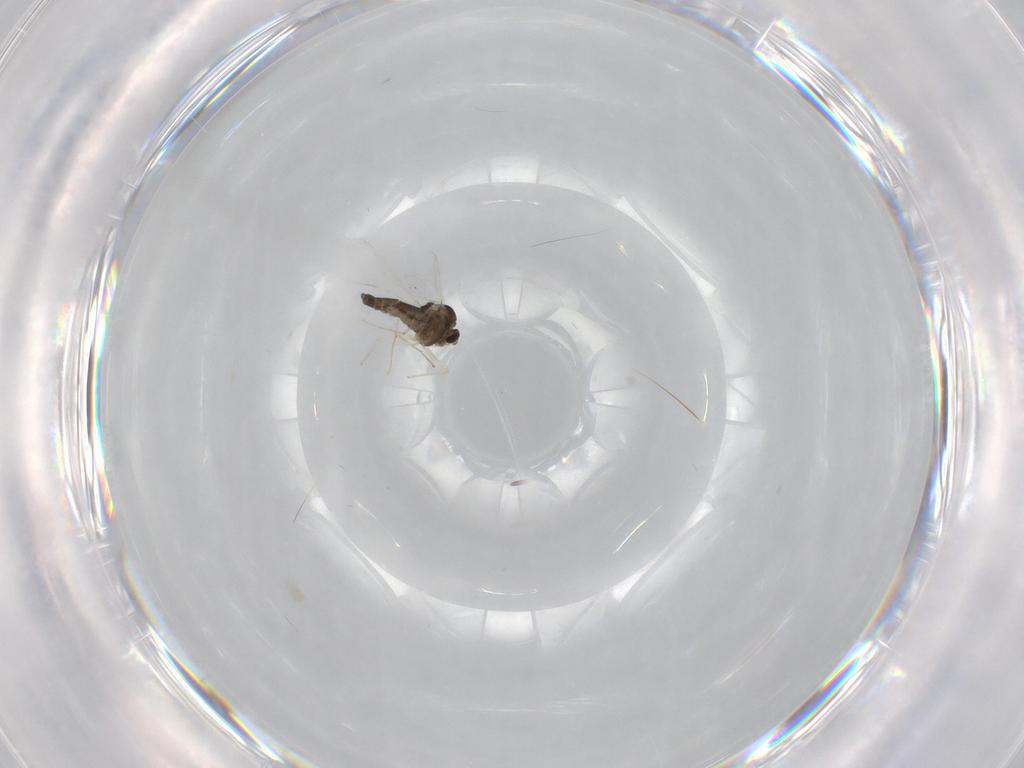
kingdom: Animalia
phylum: Arthropoda
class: Insecta
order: Diptera
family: Chironomidae
